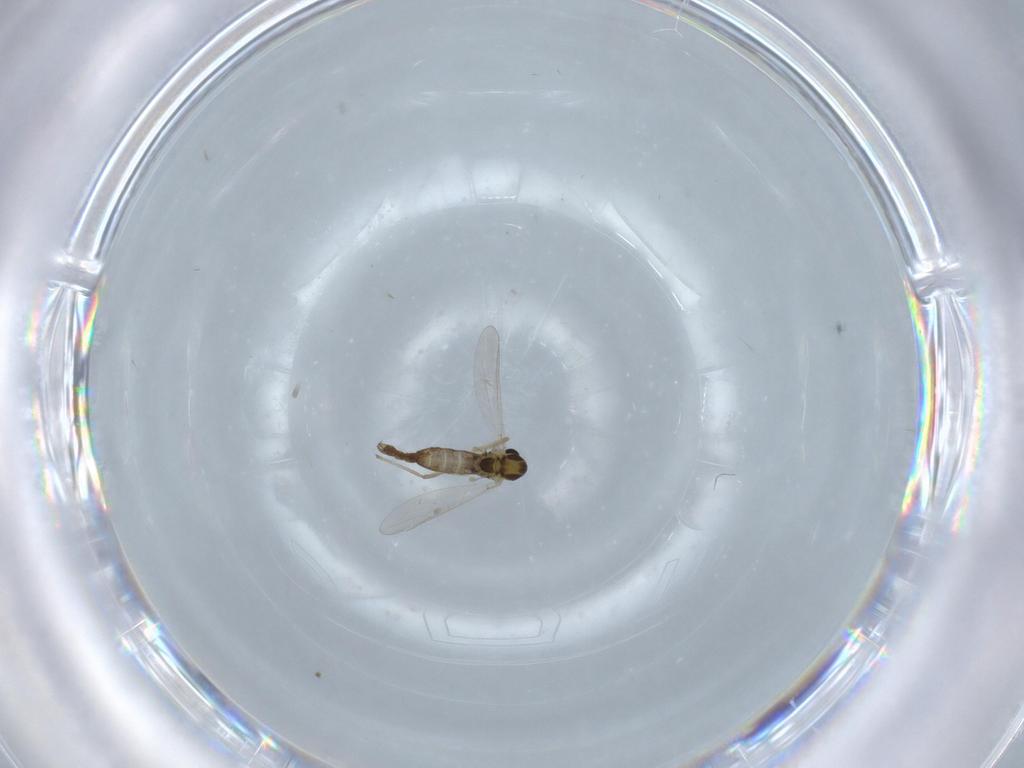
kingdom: Animalia
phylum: Arthropoda
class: Insecta
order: Diptera
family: Chironomidae
